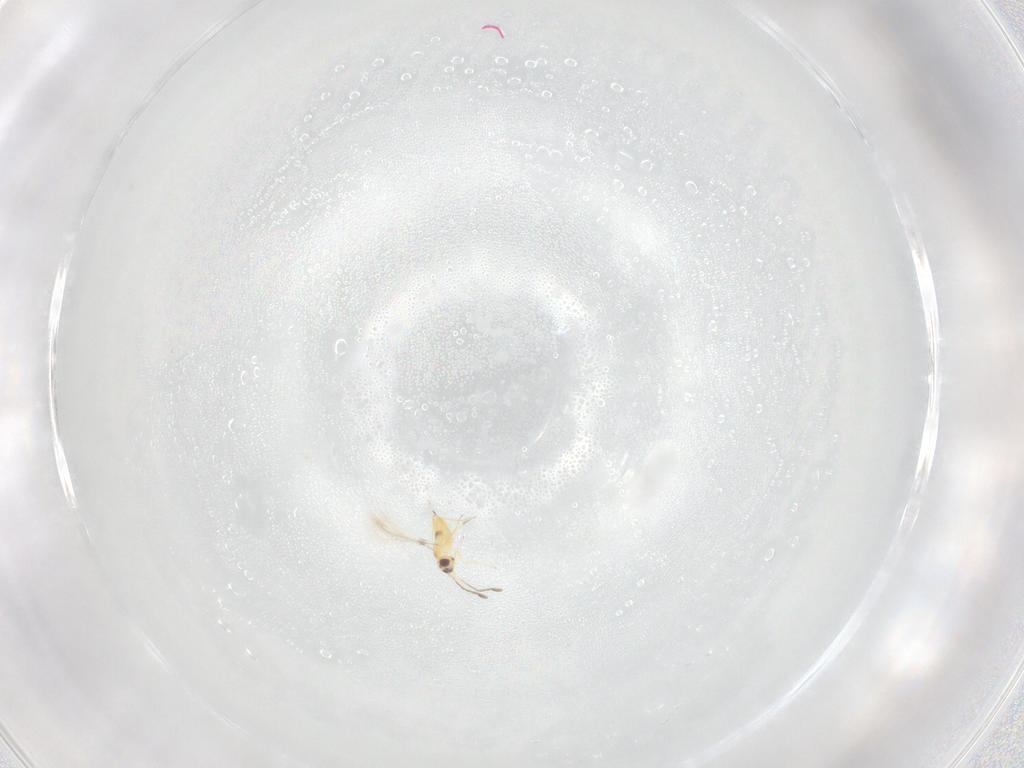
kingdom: Animalia
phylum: Arthropoda
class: Insecta
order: Hymenoptera
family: Mymaridae
